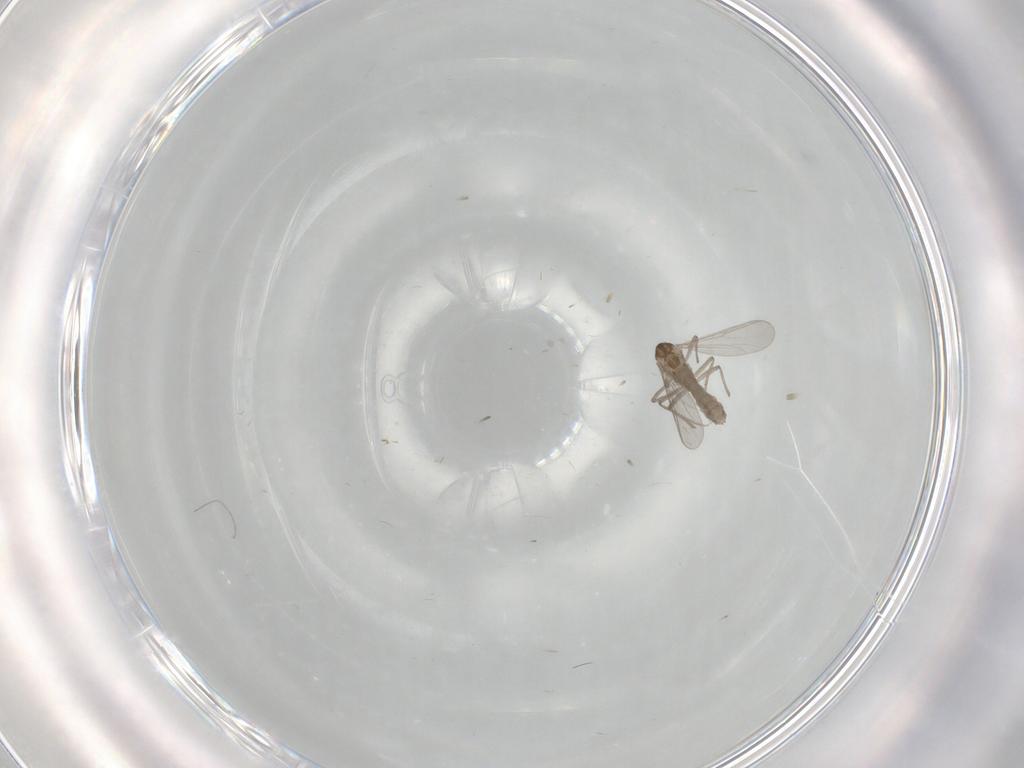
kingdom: Animalia
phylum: Arthropoda
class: Insecta
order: Diptera
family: Chironomidae
